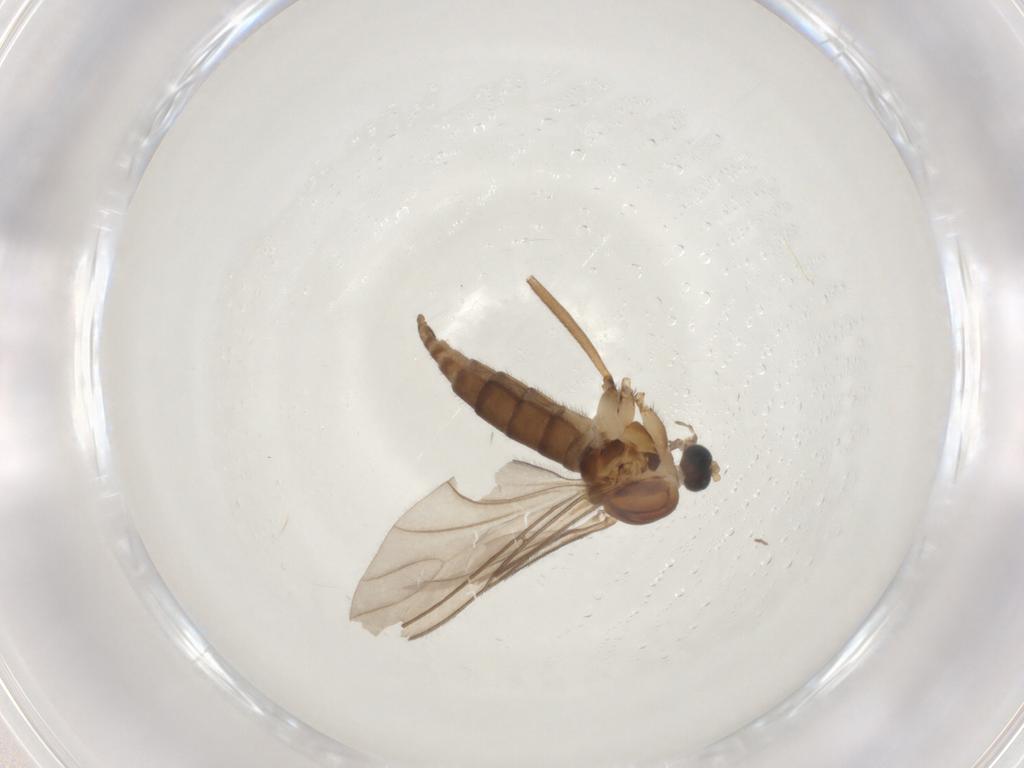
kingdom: Animalia
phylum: Arthropoda
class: Insecta
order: Diptera
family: Sciaridae
